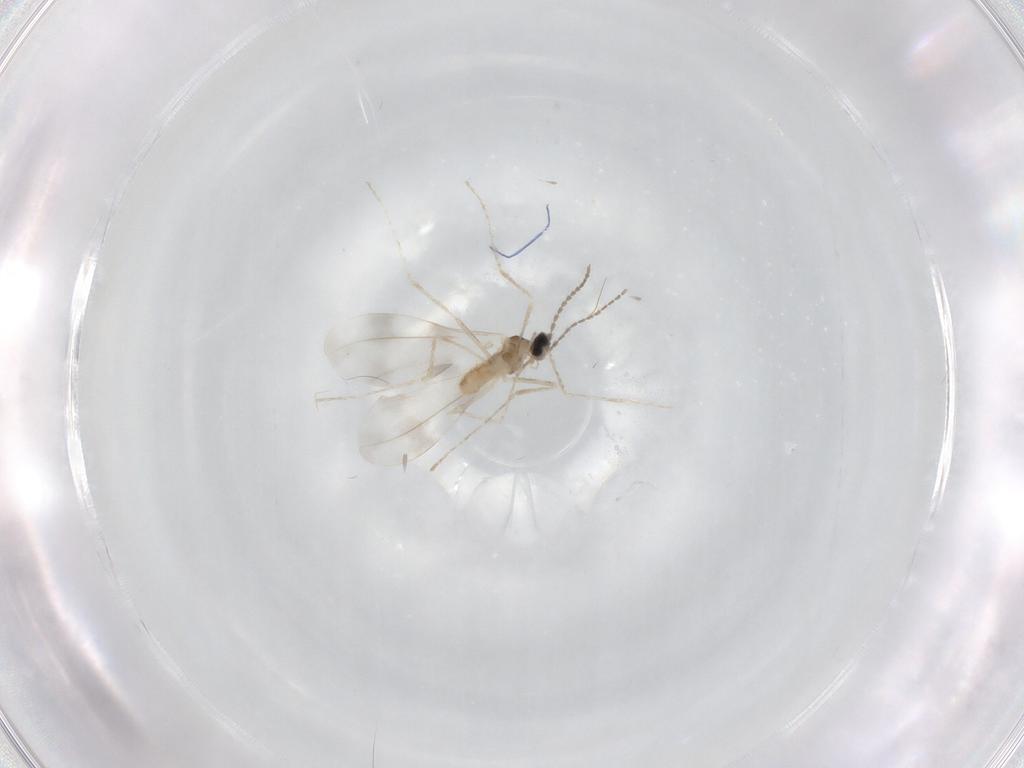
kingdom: Animalia
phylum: Arthropoda
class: Insecta
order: Diptera
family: Cecidomyiidae
